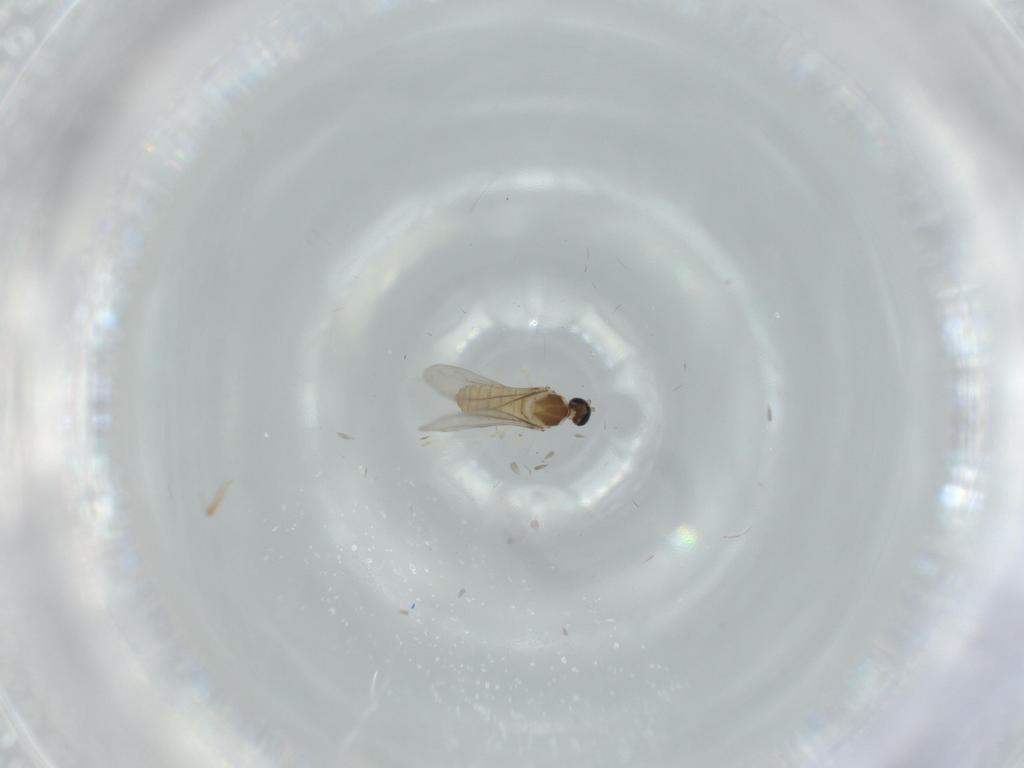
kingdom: Animalia
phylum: Arthropoda
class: Insecta
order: Diptera
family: Cecidomyiidae
